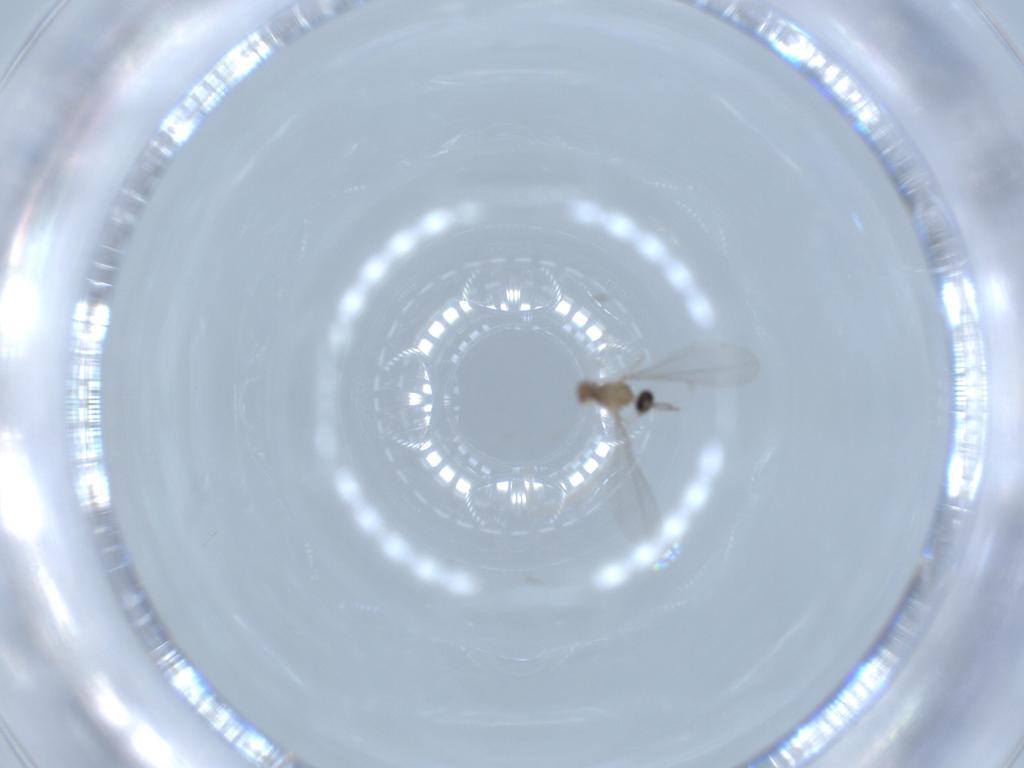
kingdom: Animalia
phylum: Arthropoda
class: Insecta
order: Diptera
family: Cecidomyiidae
